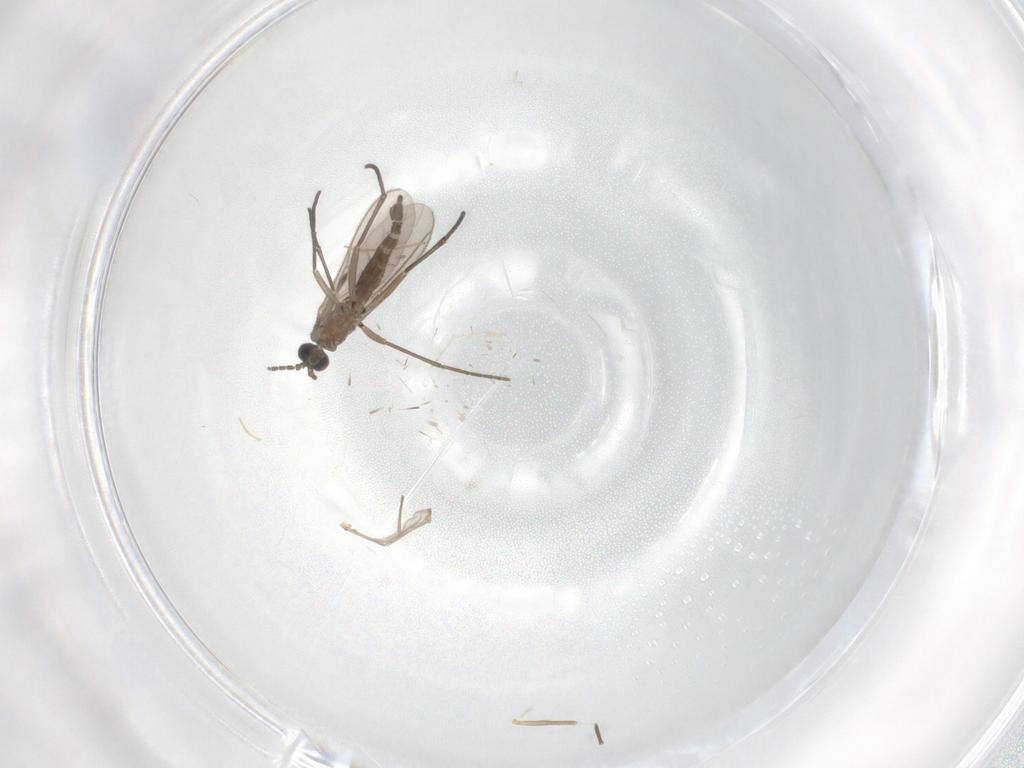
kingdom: Animalia
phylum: Arthropoda
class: Insecta
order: Diptera
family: Sciaridae
